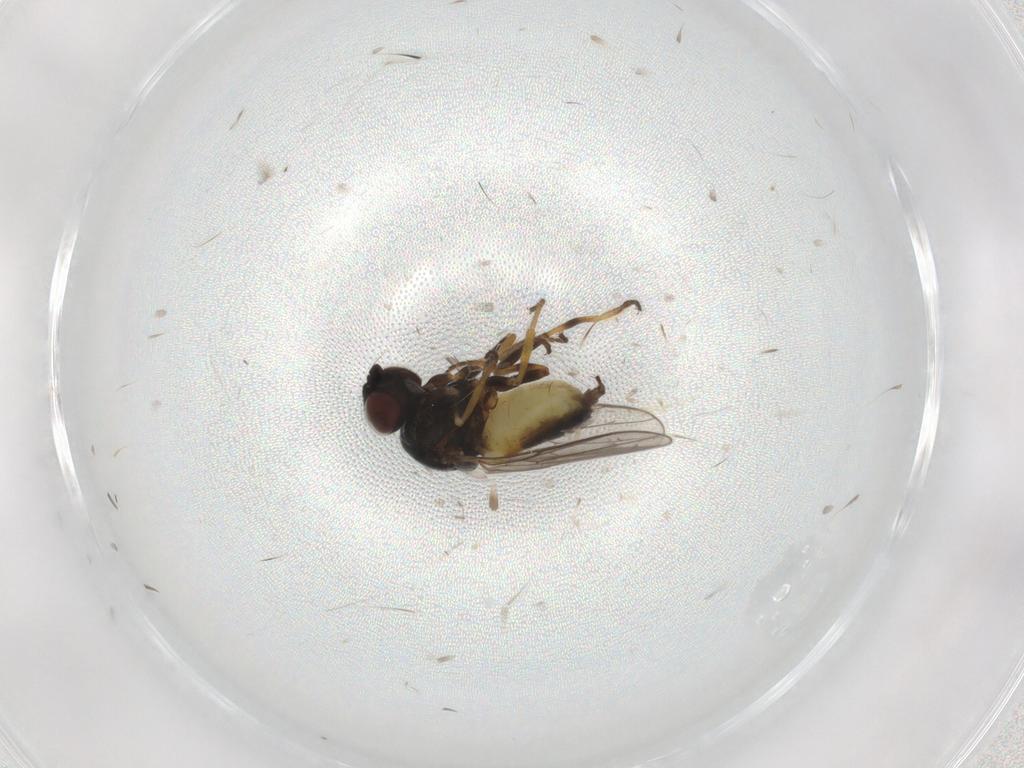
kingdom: Animalia
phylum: Arthropoda
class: Insecta
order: Diptera
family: Chloropidae
